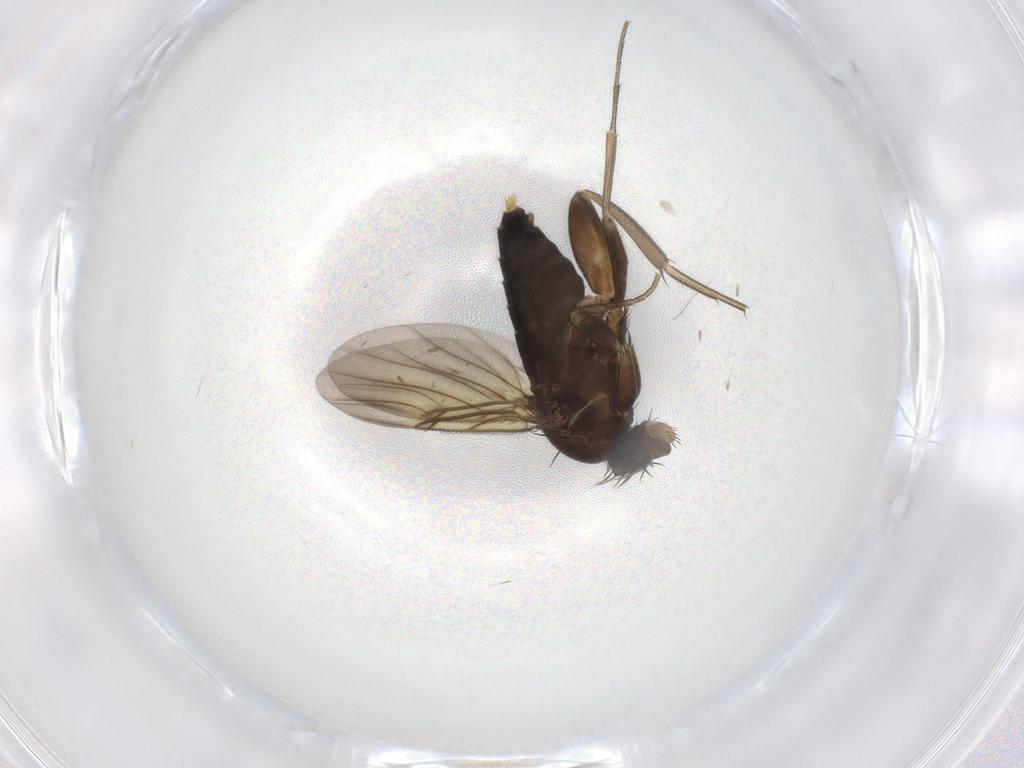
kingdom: Animalia
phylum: Arthropoda
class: Insecta
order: Diptera
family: Phoridae
